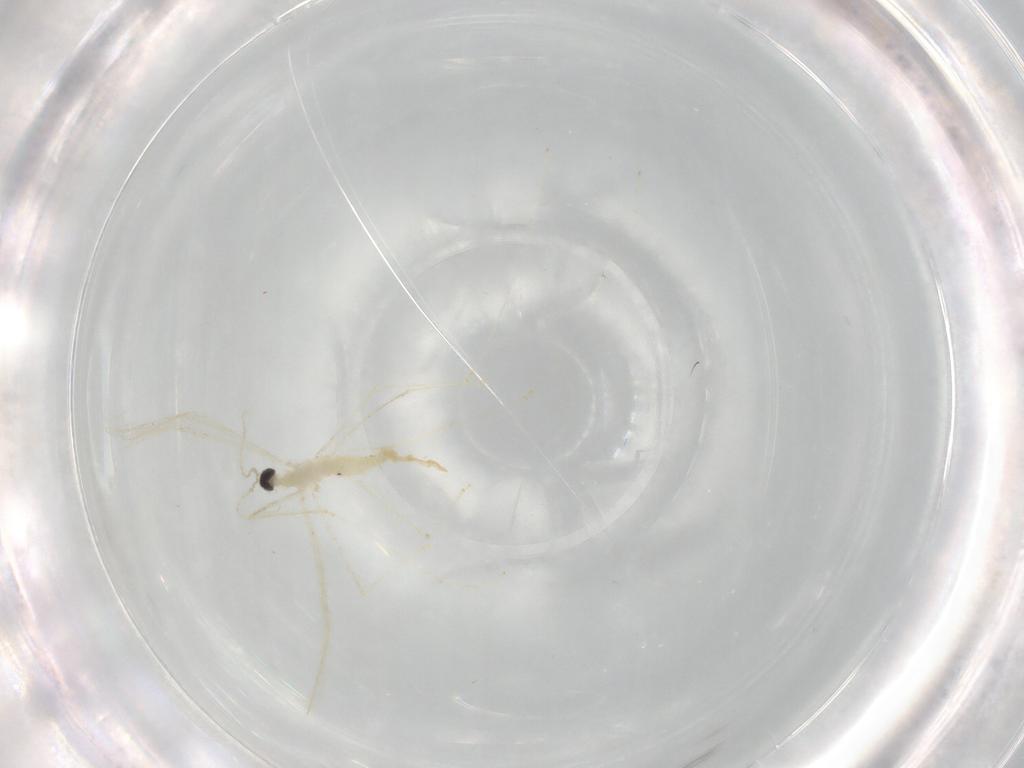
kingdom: Animalia
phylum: Arthropoda
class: Insecta
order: Diptera
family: Cecidomyiidae
